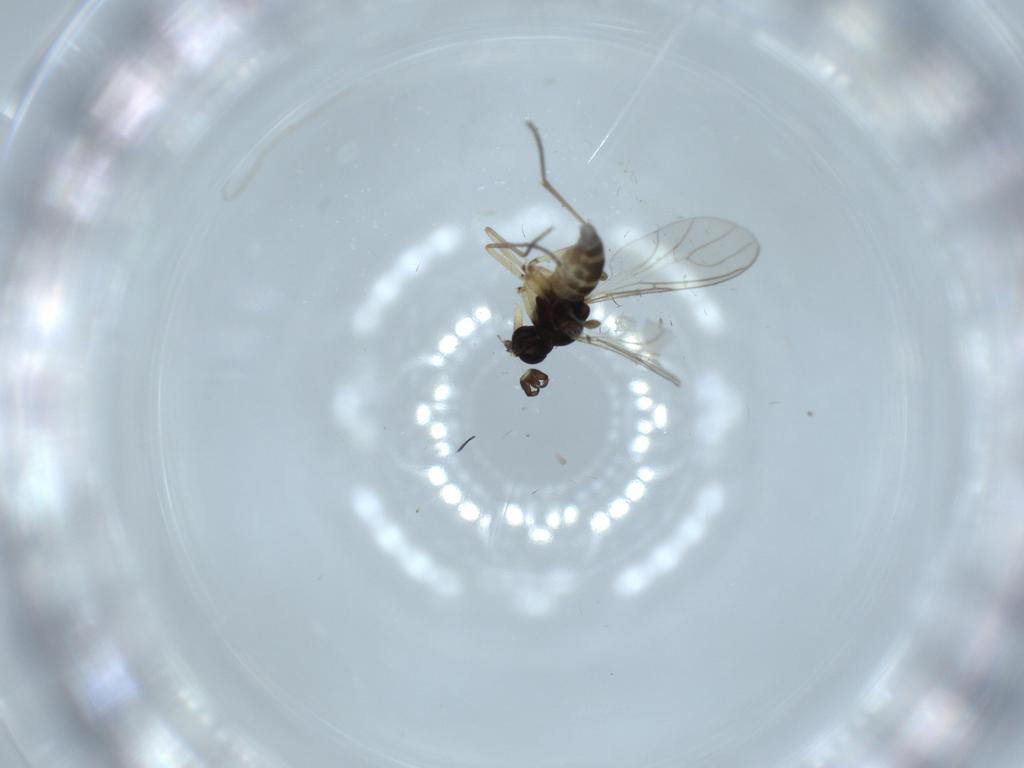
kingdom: Animalia
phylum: Arthropoda
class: Insecta
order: Diptera
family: Sciaridae
